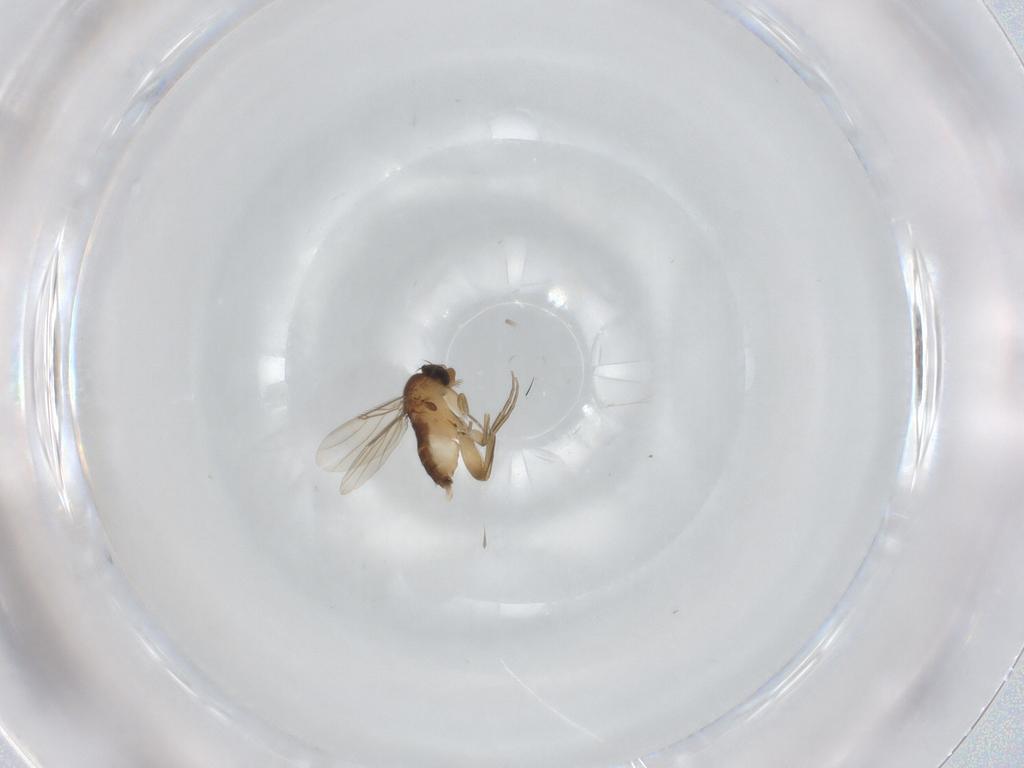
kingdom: Animalia
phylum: Arthropoda
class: Insecta
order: Diptera
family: Phoridae
